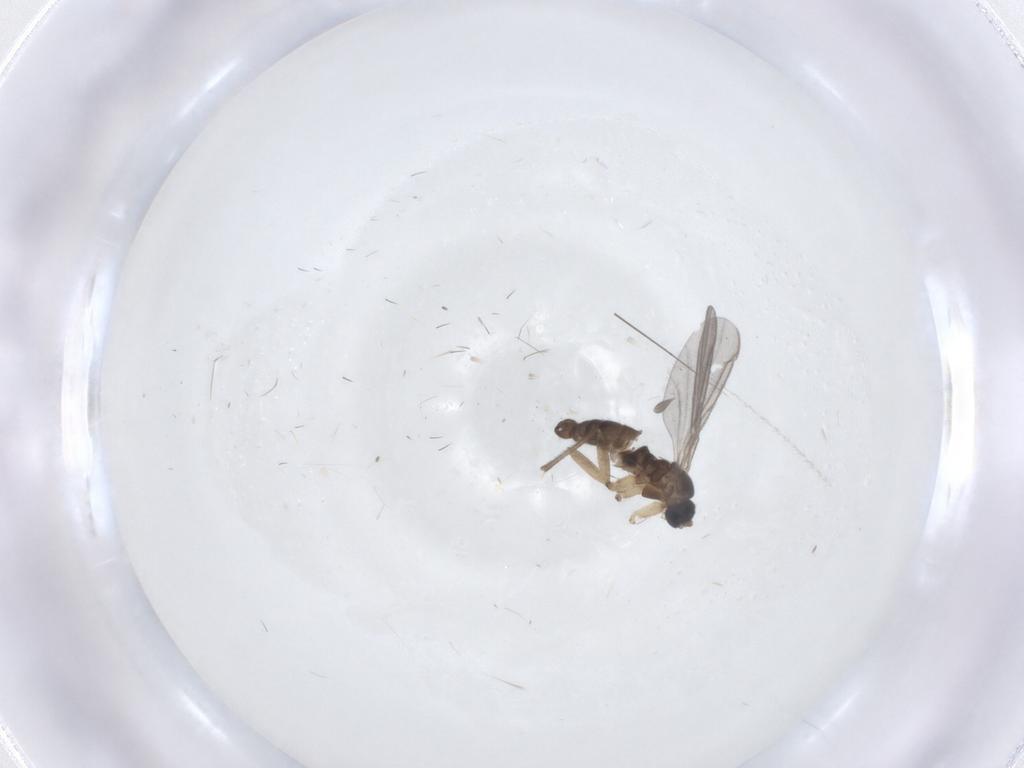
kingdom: Animalia
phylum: Arthropoda
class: Insecta
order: Diptera
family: Sciaridae
